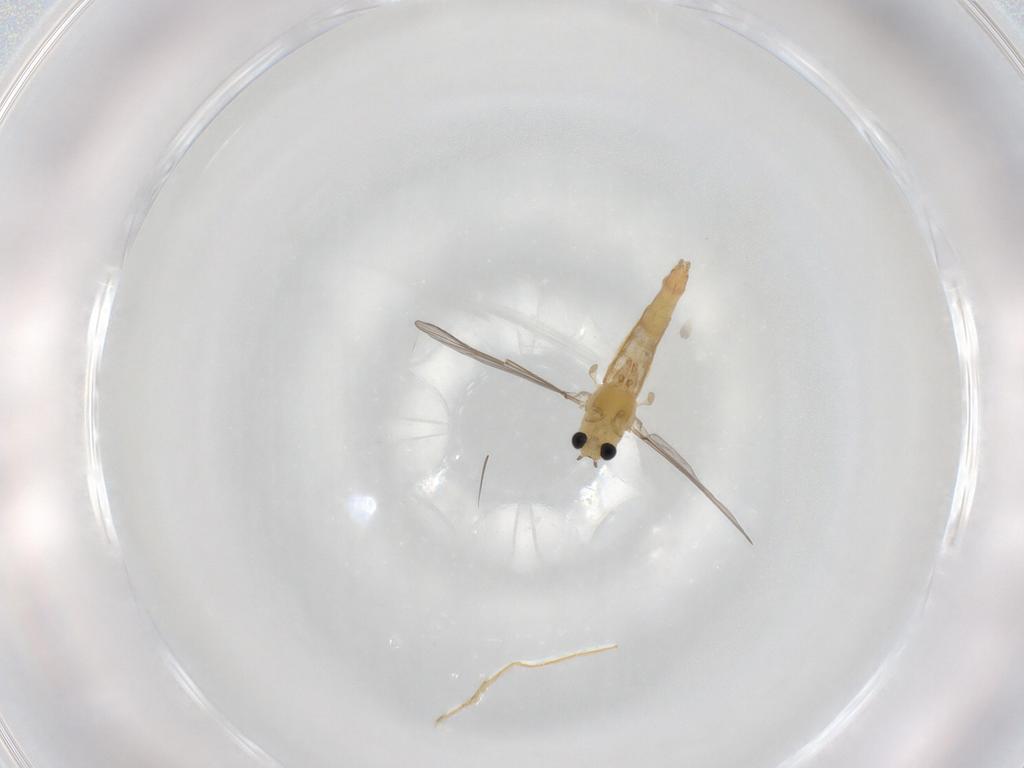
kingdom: Animalia
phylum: Arthropoda
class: Insecta
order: Diptera
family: Chironomidae
